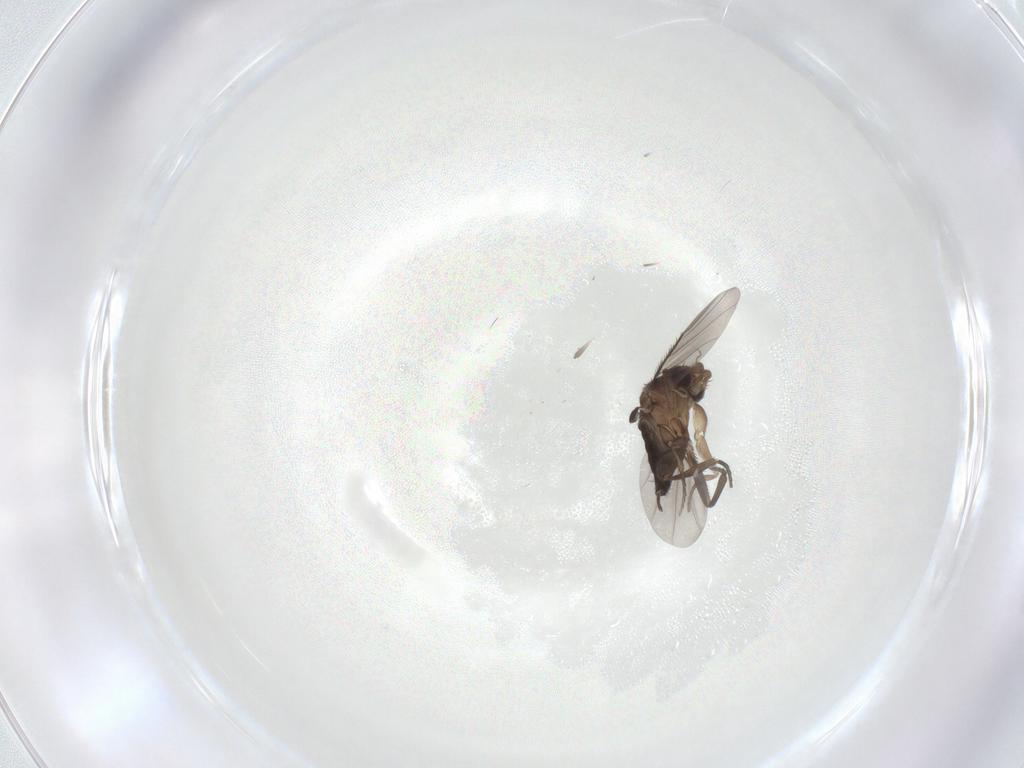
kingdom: Animalia
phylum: Arthropoda
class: Insecta
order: Diptera
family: Phoridae
